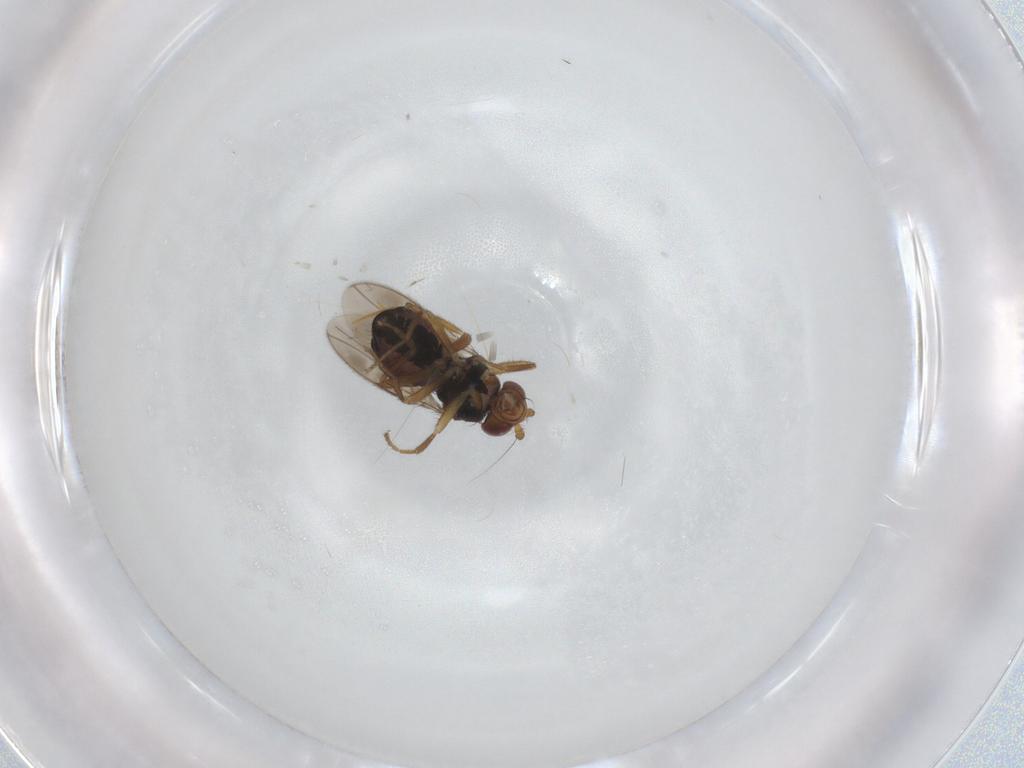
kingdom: Animalia
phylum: Arthropoda
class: Insecta
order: Diptera
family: Sphaeroceridae
